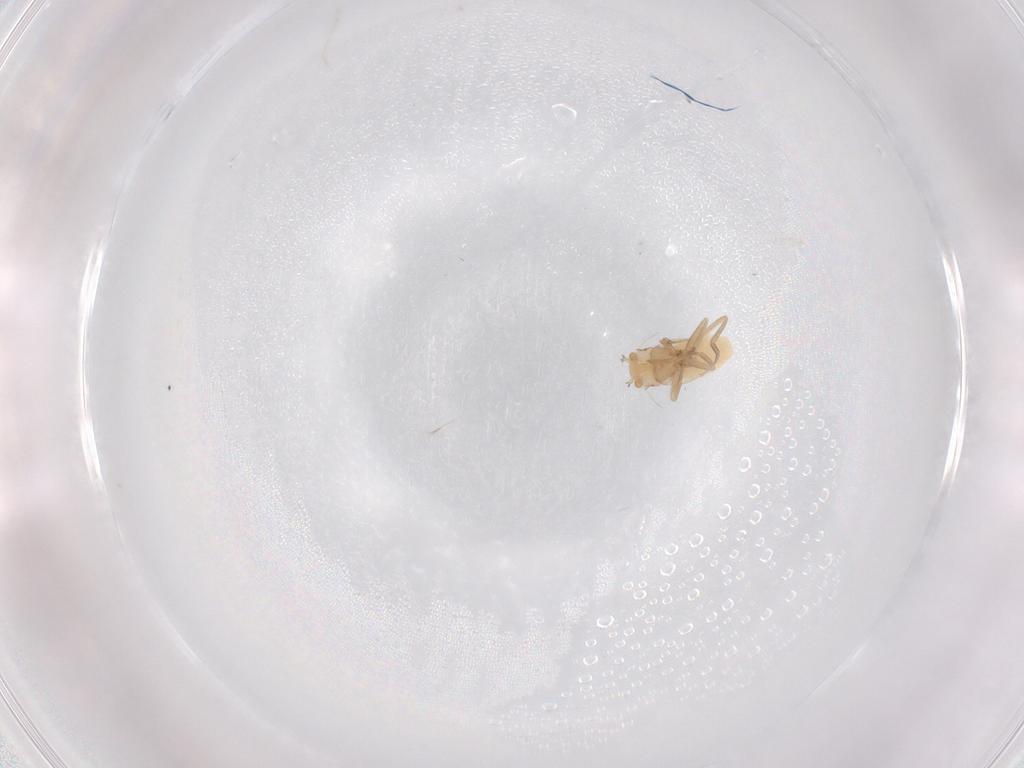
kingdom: Animalia
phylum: Arthropoda
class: Insecta
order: Diptera
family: Phoridae
